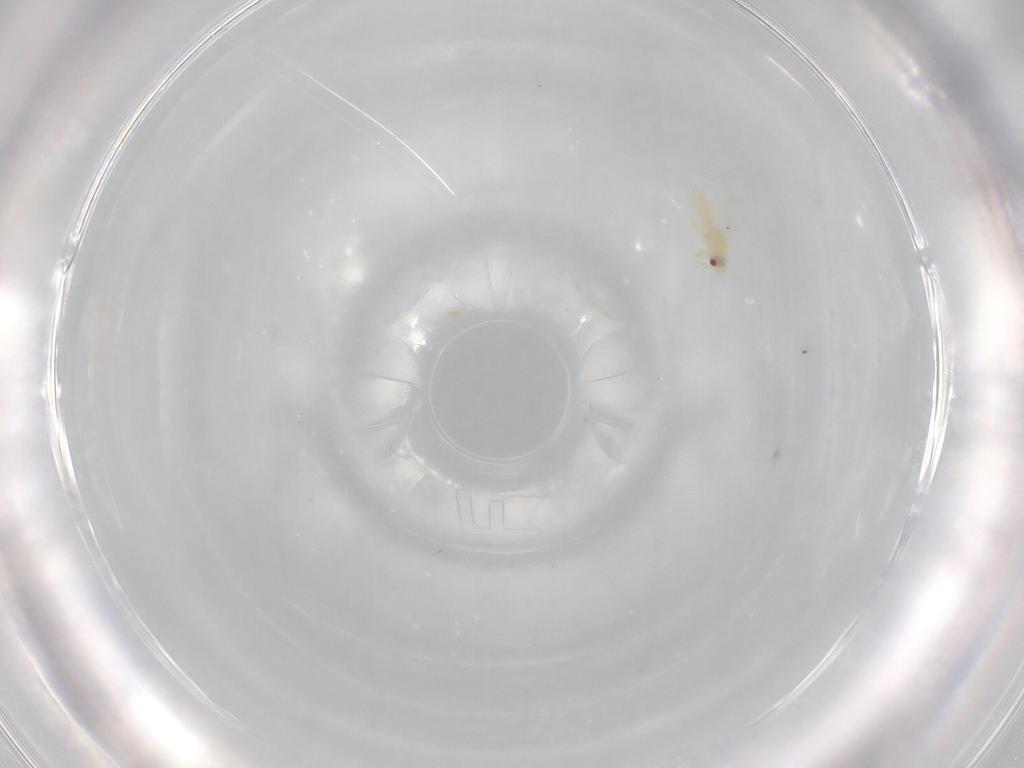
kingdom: Animalia
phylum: Arthropoda
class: Insecta
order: Hemiptera
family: Aleyrodidae
